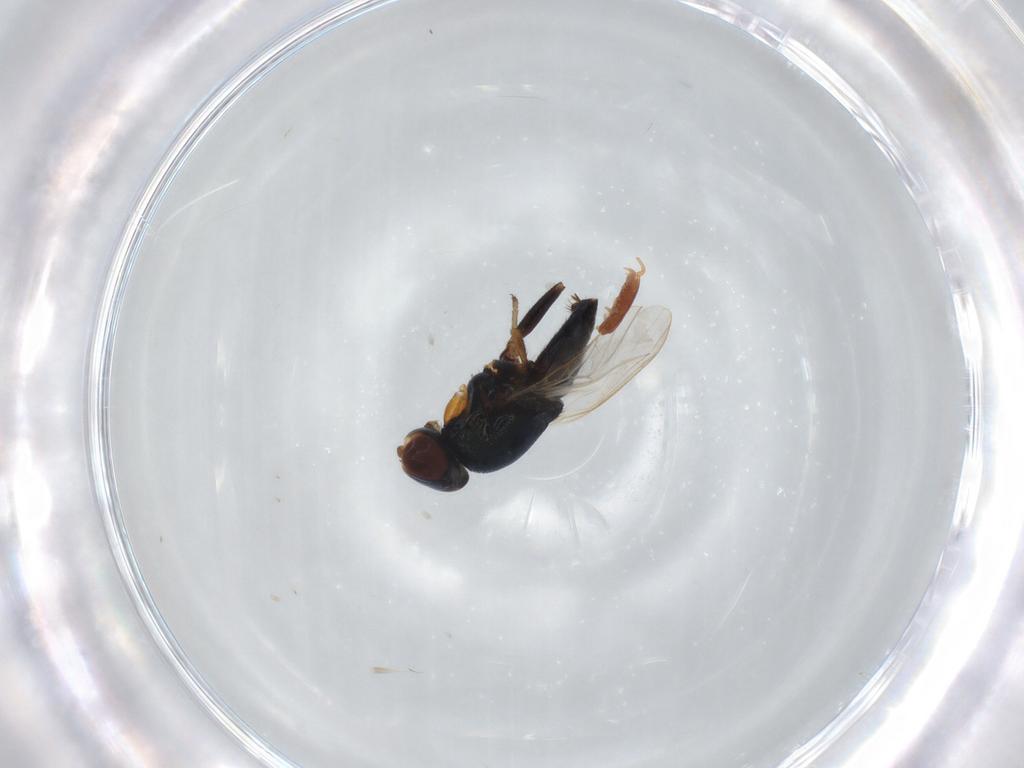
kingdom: Animalia
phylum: Arthropoda
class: Insecta
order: Diptera
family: Chloropidae
